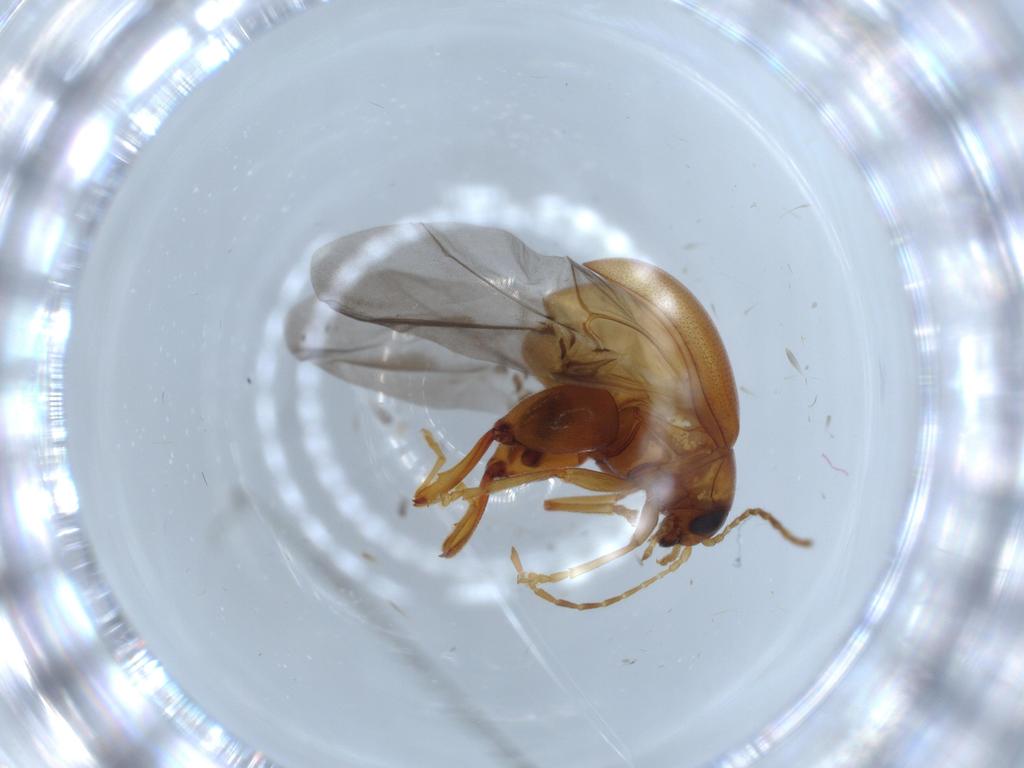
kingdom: Animalia
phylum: Arthropoda
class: Insecta
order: Coleoptera
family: Chrysomelidae
